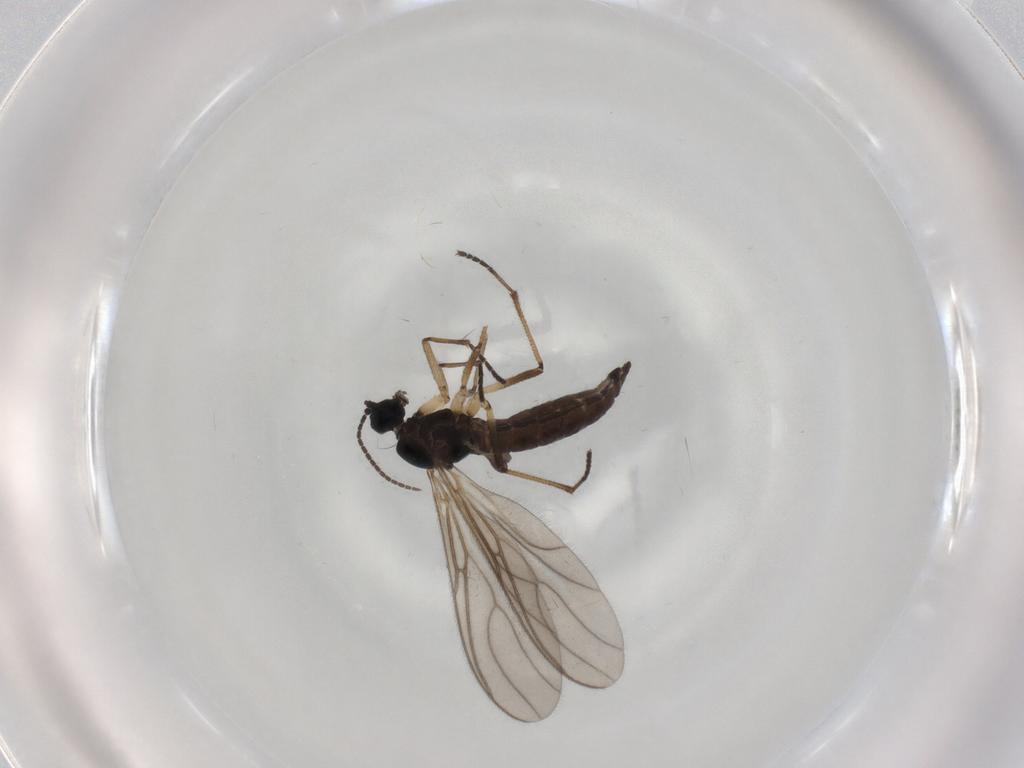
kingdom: Animalia
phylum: Arthropoda
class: Insecta
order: Diptera
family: Sciaridae
